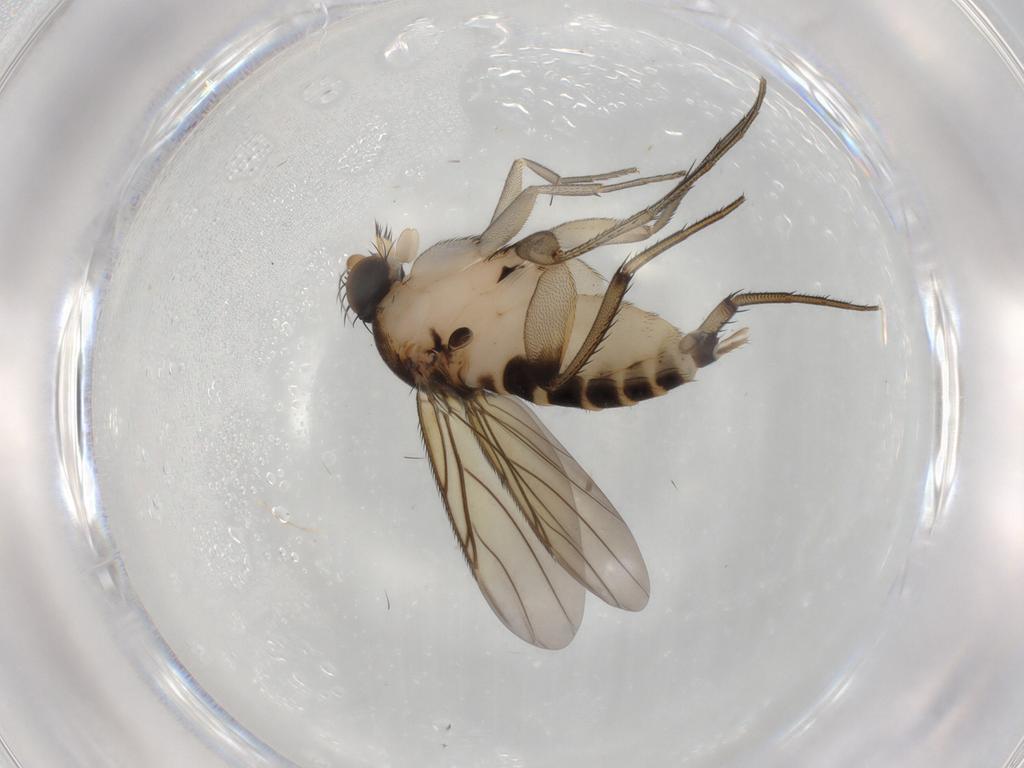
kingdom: Animalia
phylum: Arthropoda
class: Insecta
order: Diptera
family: Phoridae
